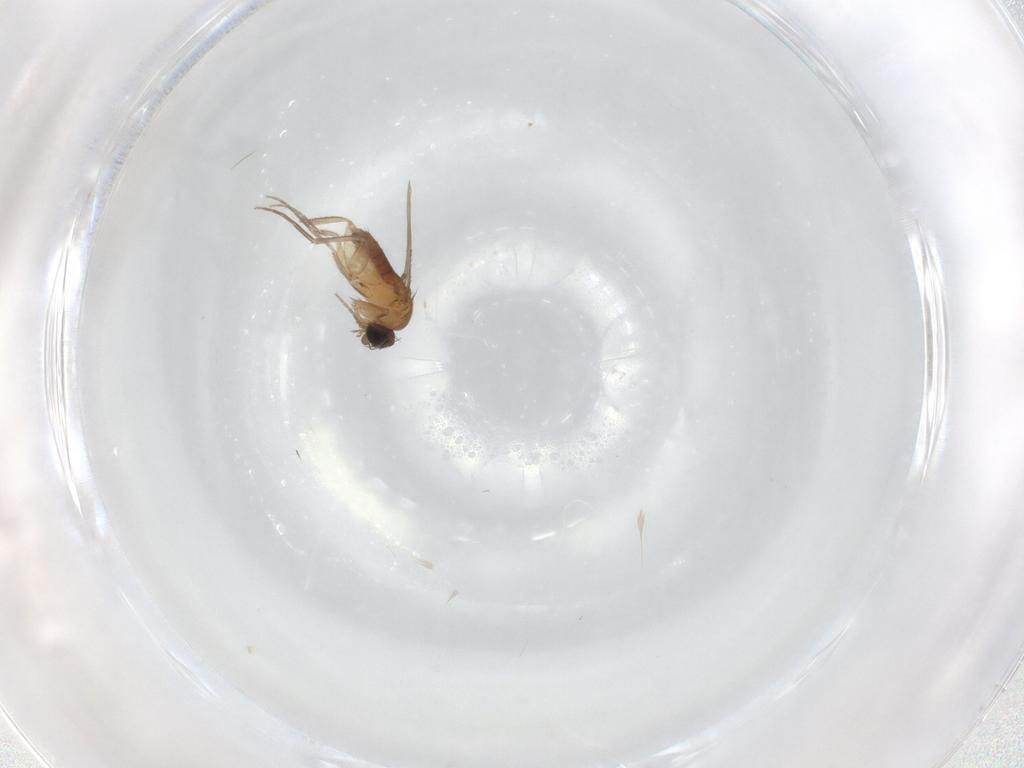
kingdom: Animalia
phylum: Arthropoda
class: Insecta
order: Diptera
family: Phoridae
